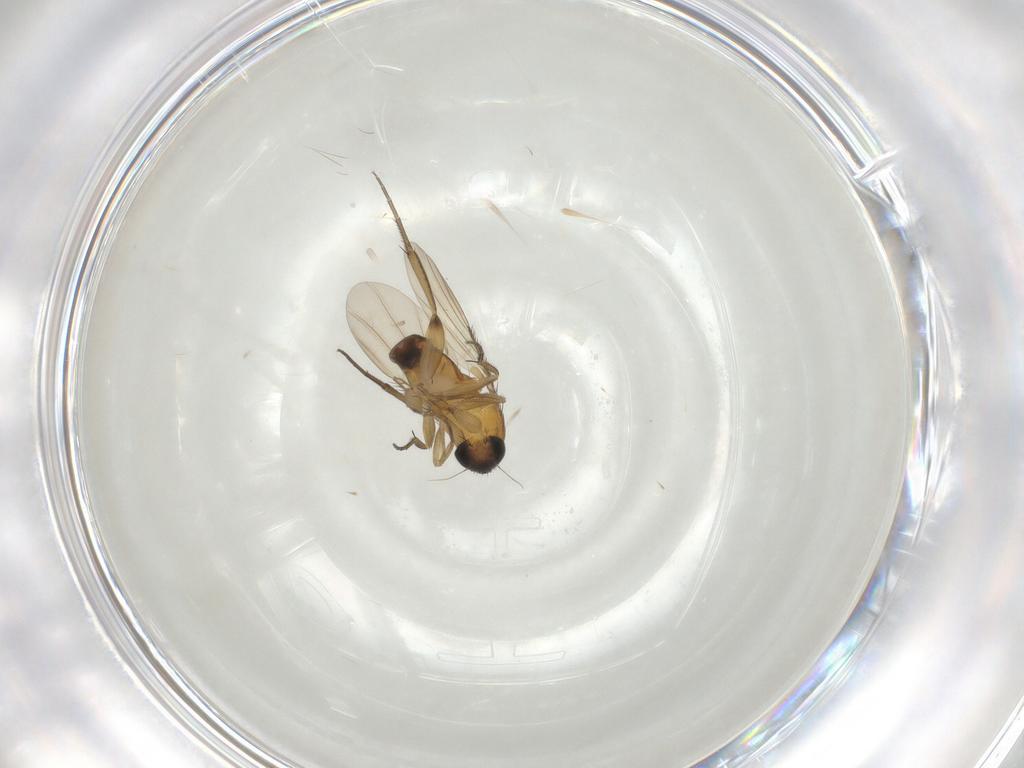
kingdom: Animalia
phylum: Arthropoda
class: Insecta
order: Diptera
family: Phoridae
